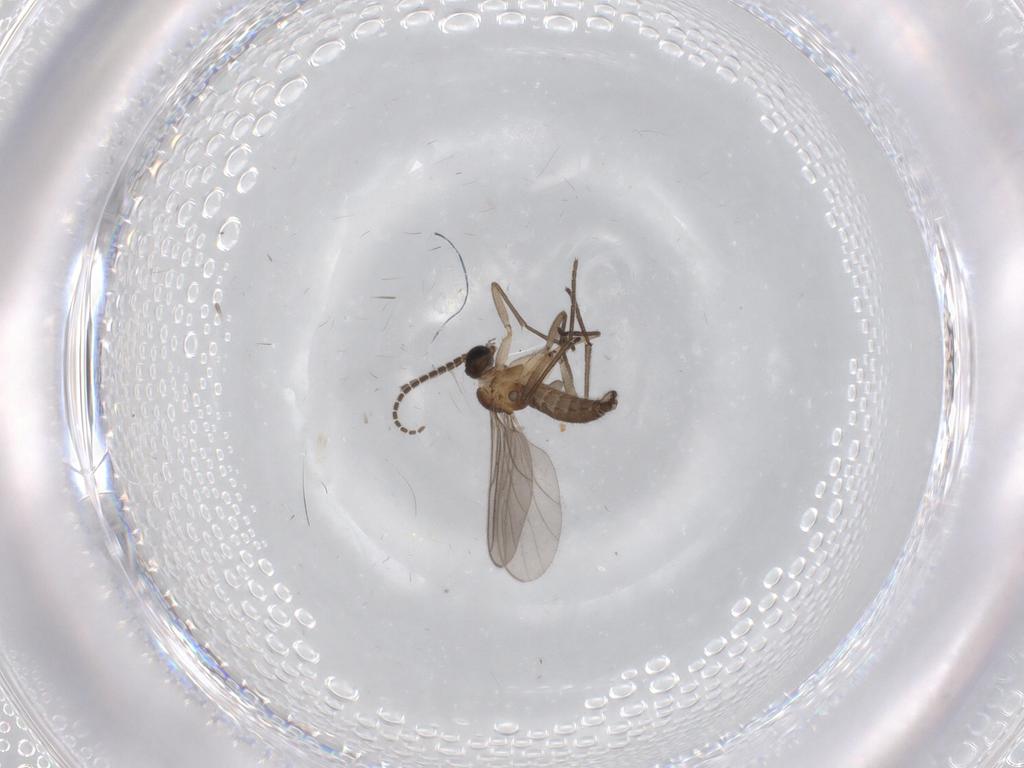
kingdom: Animalia
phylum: Arthropoda
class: Insecta
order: Diptera
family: Sciaridae
